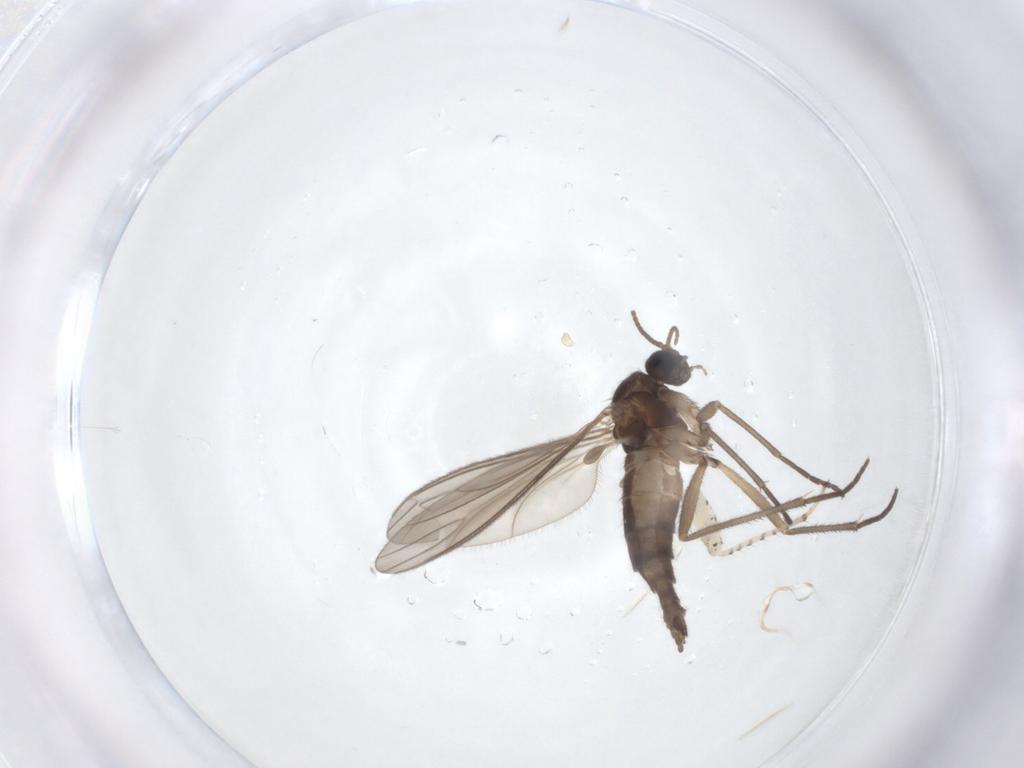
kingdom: Animalia
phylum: Arthropoda
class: Insecta
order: Diptera
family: Sciaridae
